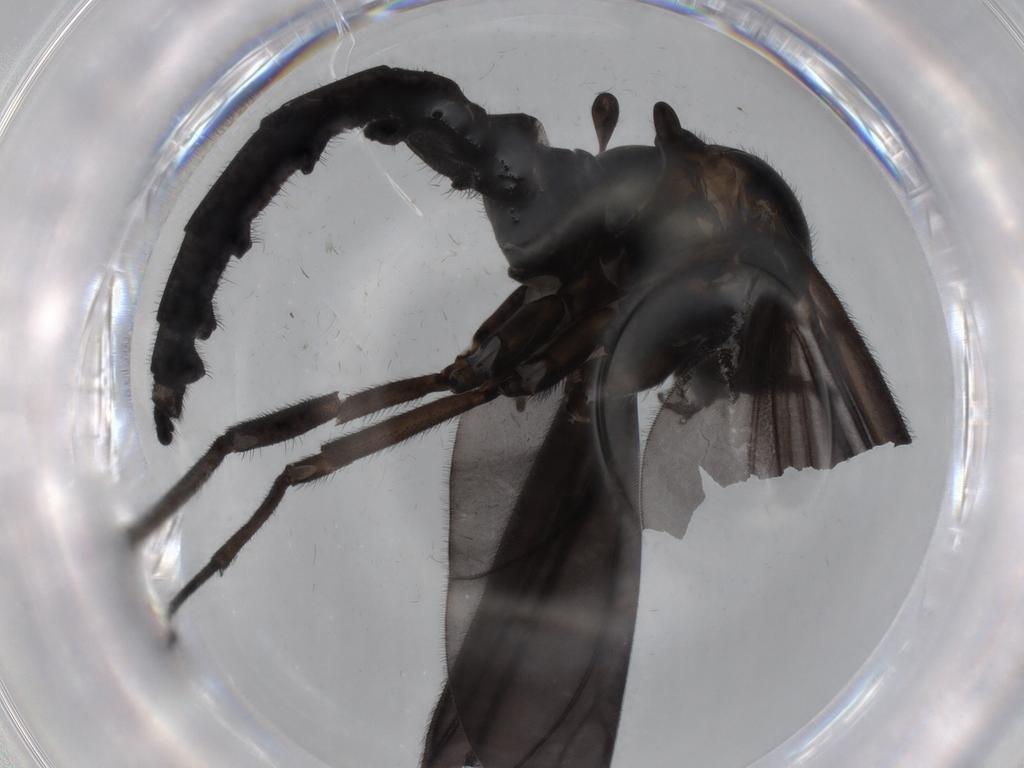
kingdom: Animalia
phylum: Arthropoda
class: Insecta
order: Diptera
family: Sciaridae
